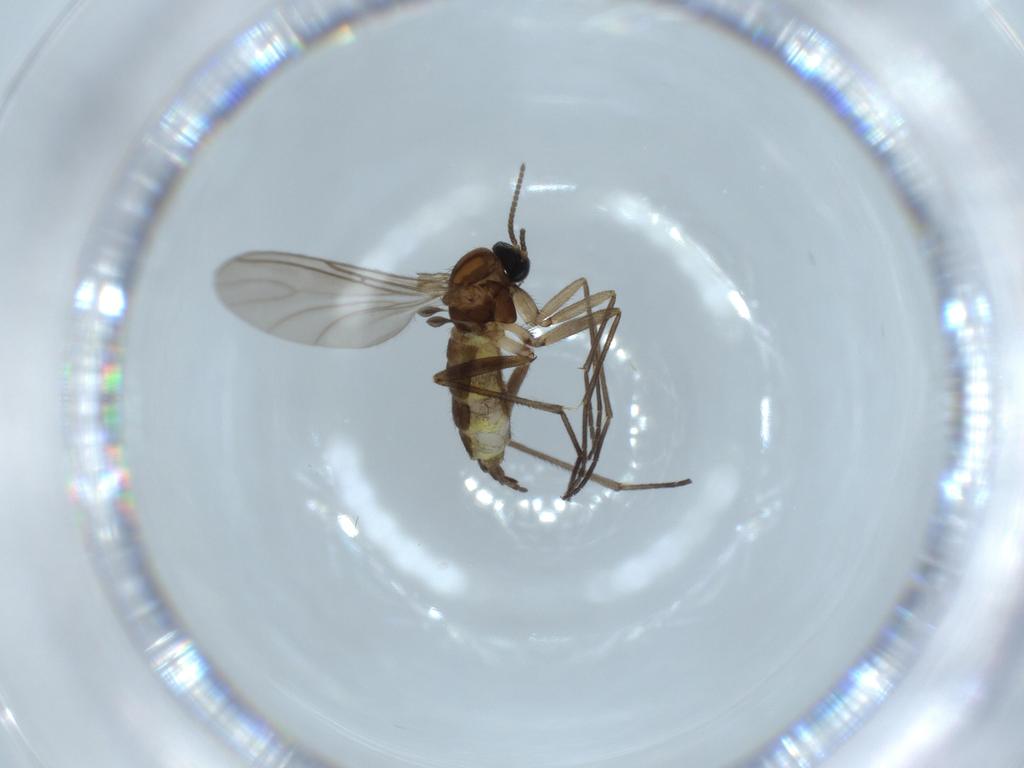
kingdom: Animalia
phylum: Arthropoda
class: Insecta
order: Diptera
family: Sciaridae
